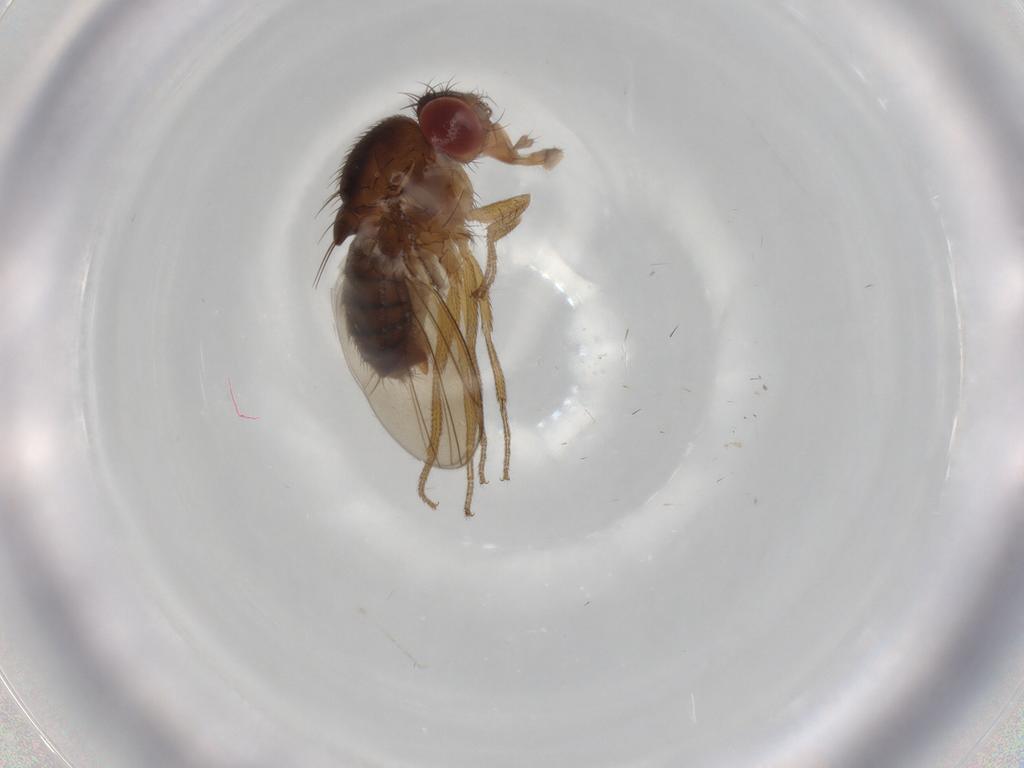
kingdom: Animalia
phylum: Arthropoda
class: Insecta
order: Diptera
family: Drosophilidae
